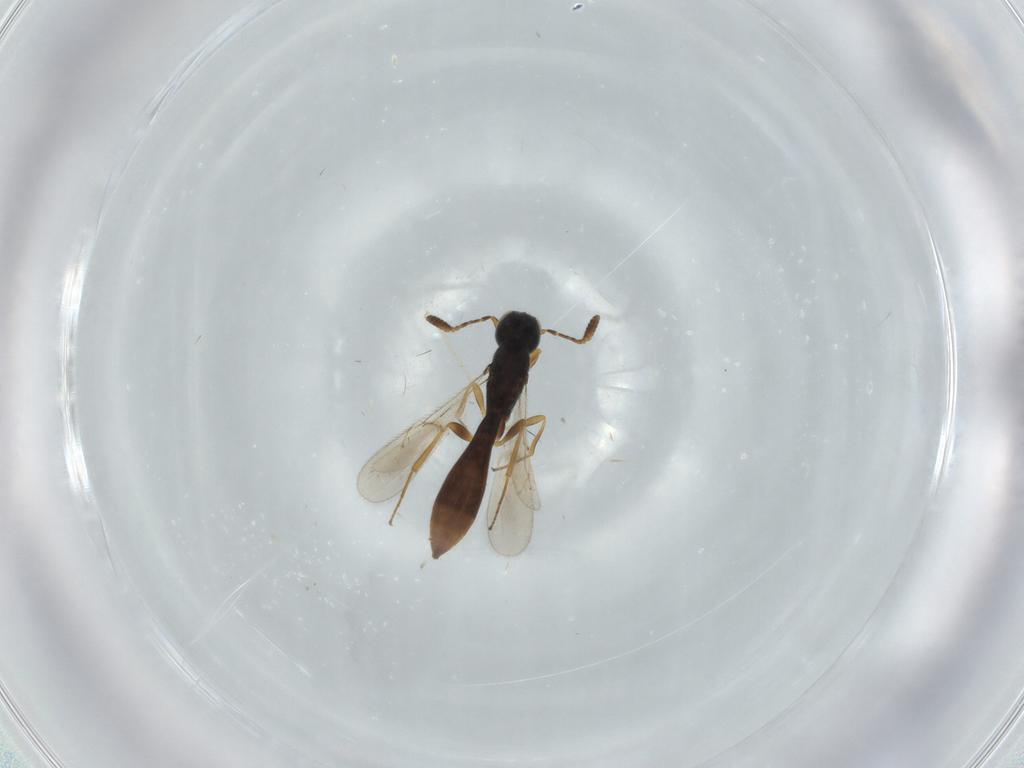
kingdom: Animalia
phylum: Arthropoda
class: Insecta
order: Hymenoptera
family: Scelionidae
